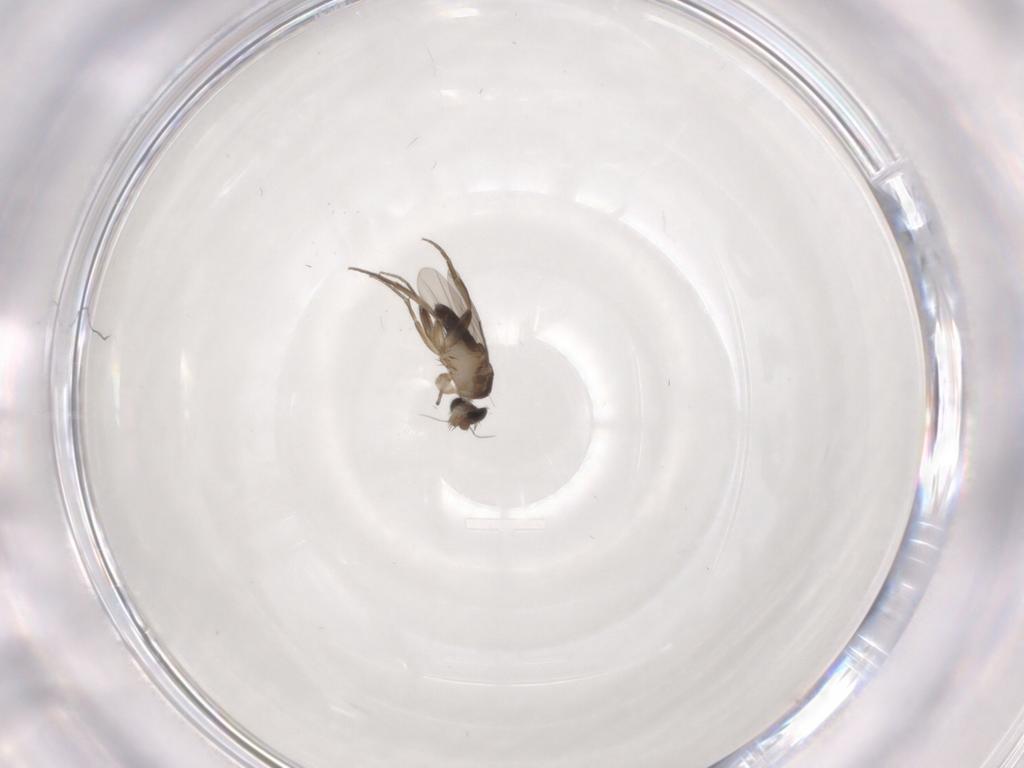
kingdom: Animalia
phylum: Arthropoda
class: Insecta
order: Diptera
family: Phoridae
